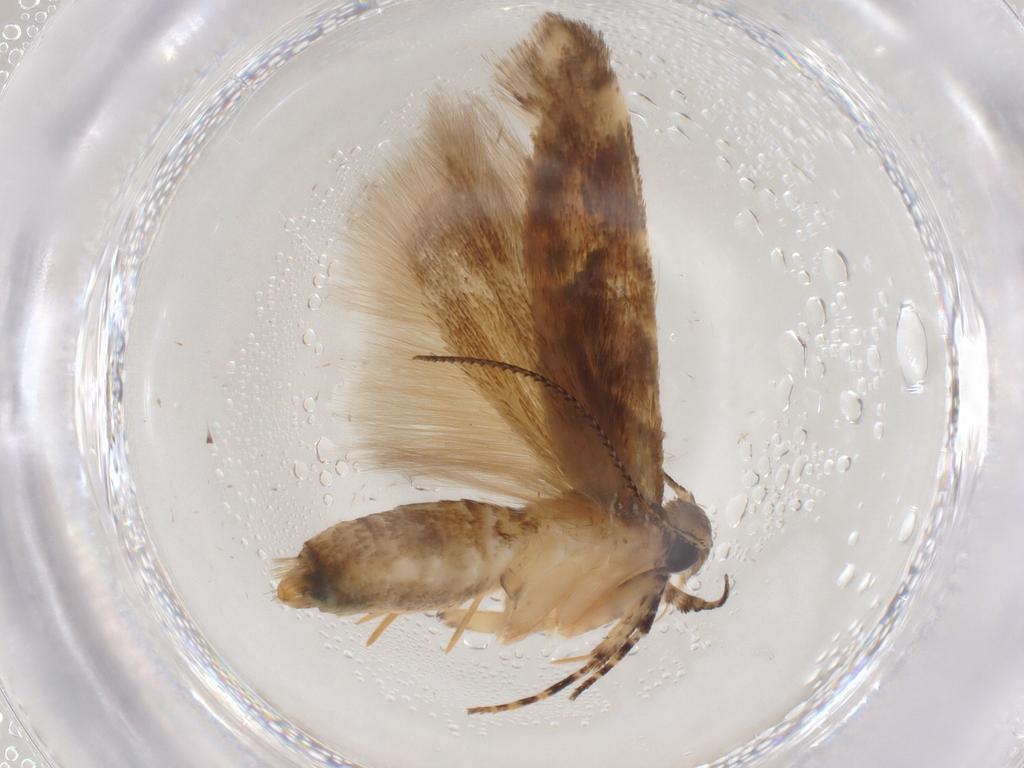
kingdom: Animalia
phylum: Arthropoda
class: Insecta
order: Lepidoptera
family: Gelechiidae
